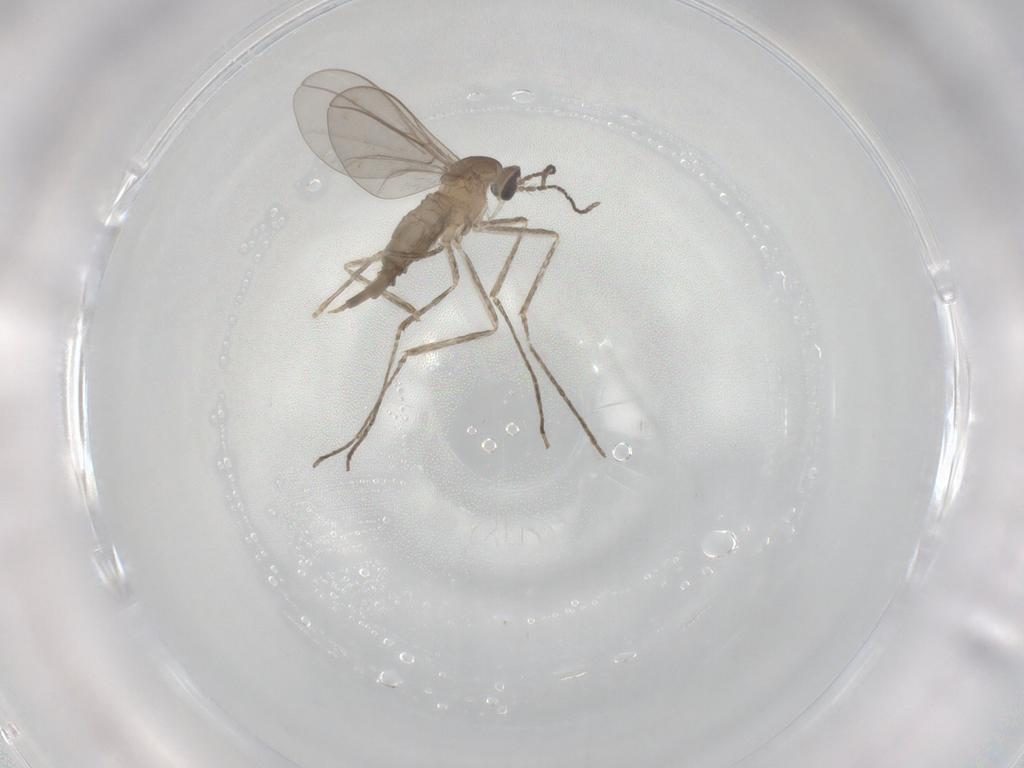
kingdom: Animalia
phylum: Arthropoda
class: Insecta
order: Diptera
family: Cecidomyiidae
